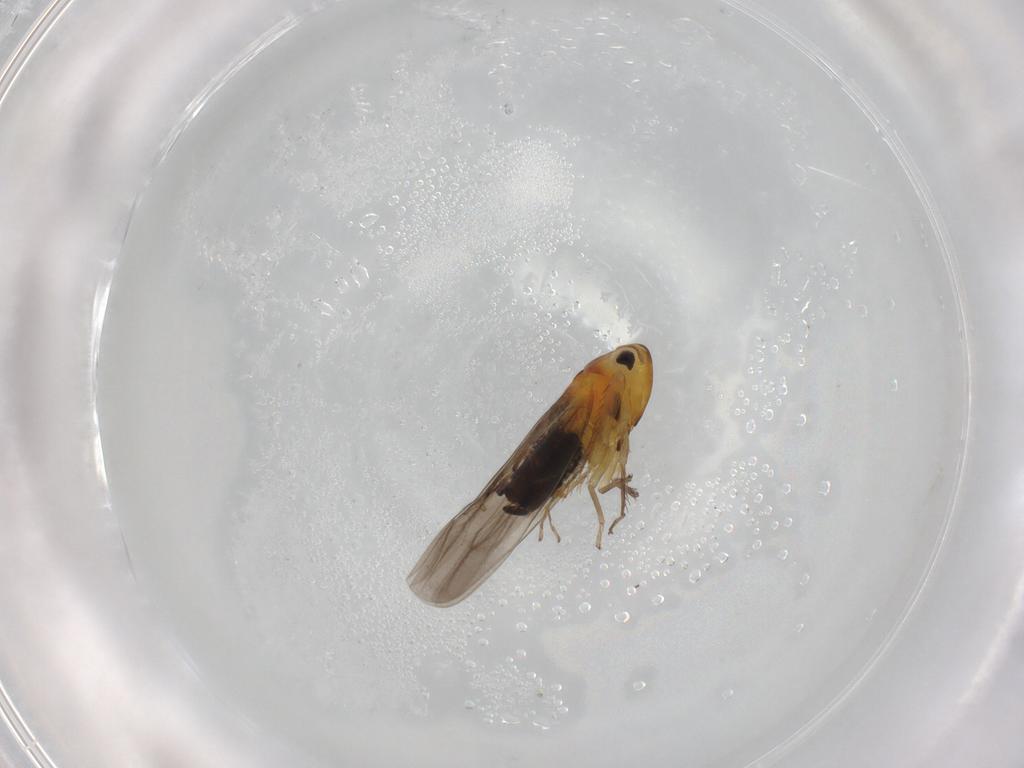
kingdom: Animalia
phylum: Arthropoda
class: Insecta
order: Hemiptera
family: Cicadellidae
